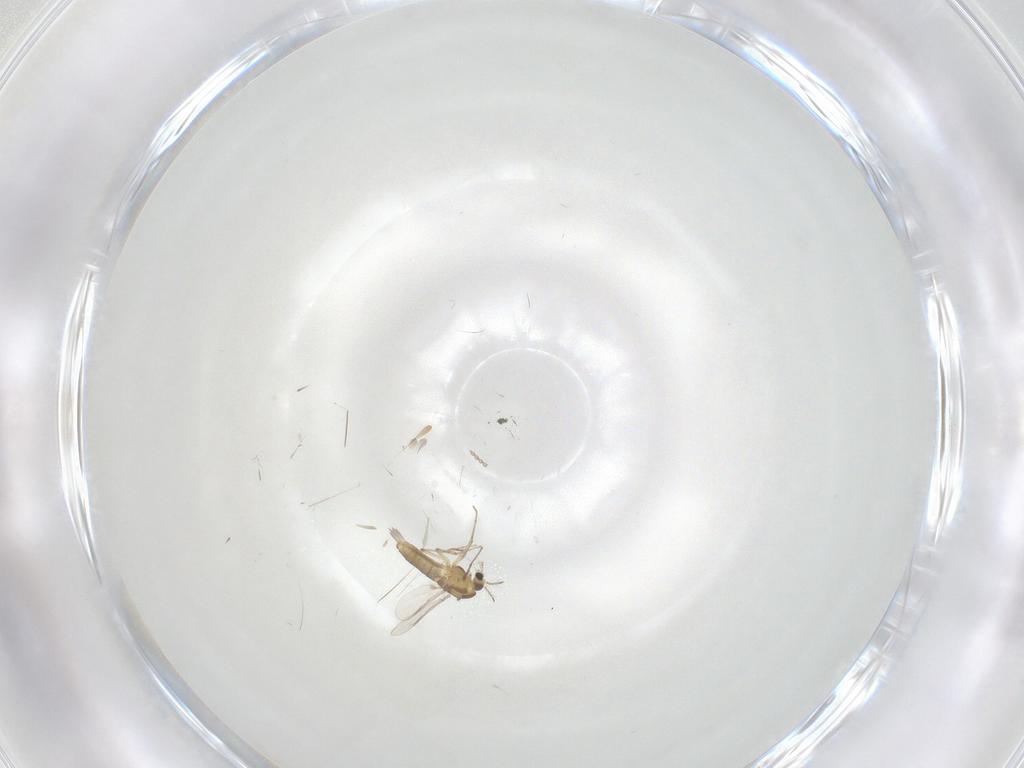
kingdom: Animalia
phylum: Arthropoda
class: Insecta
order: Diptera
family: Chironomidae
